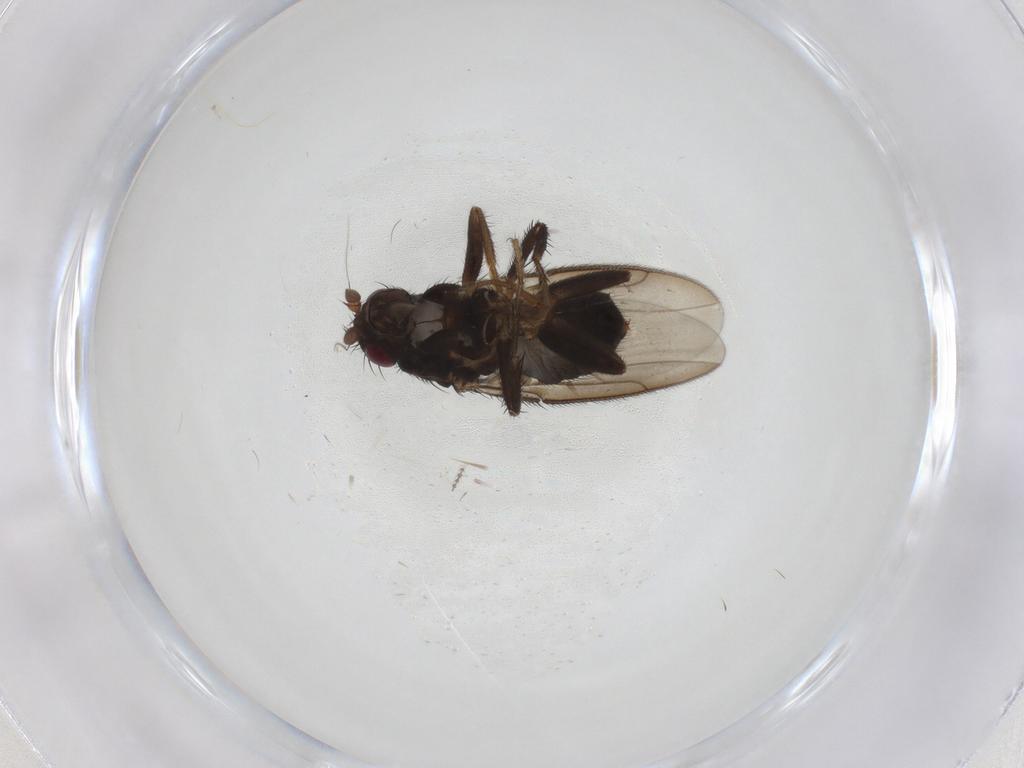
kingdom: Animalia
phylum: Arthropoda
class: Insecta
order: Diptera
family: Sphaeroceridae
